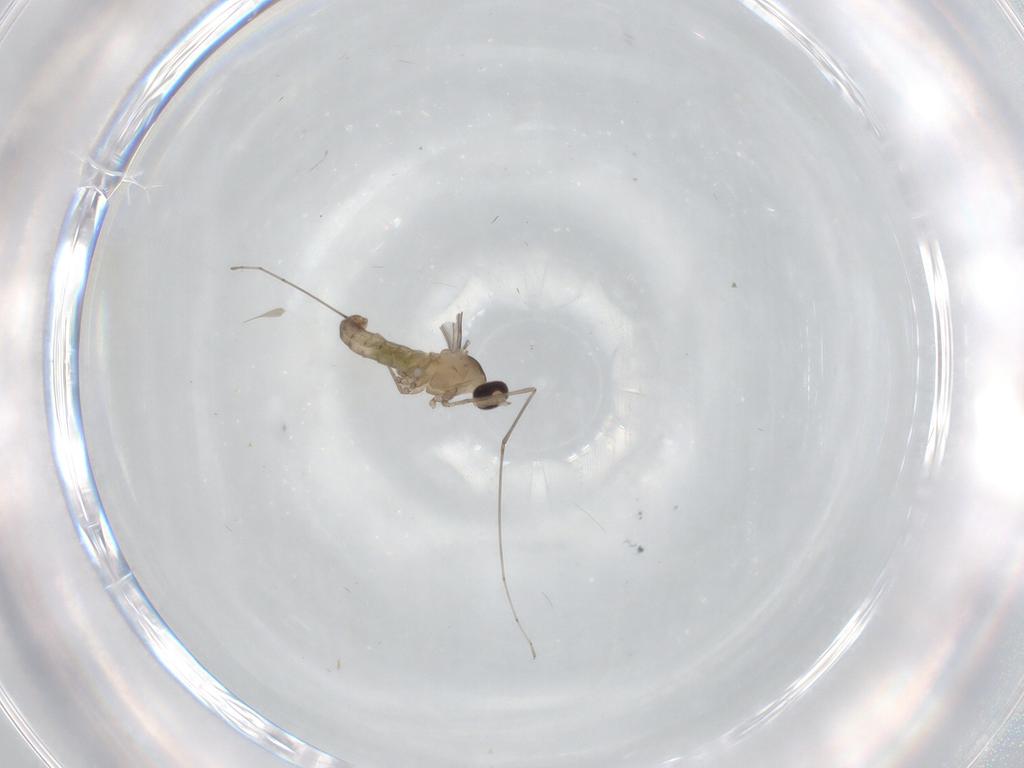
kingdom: Animalia
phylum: Arthropoda
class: Insecta
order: Diptera
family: Cecidomyiidae
